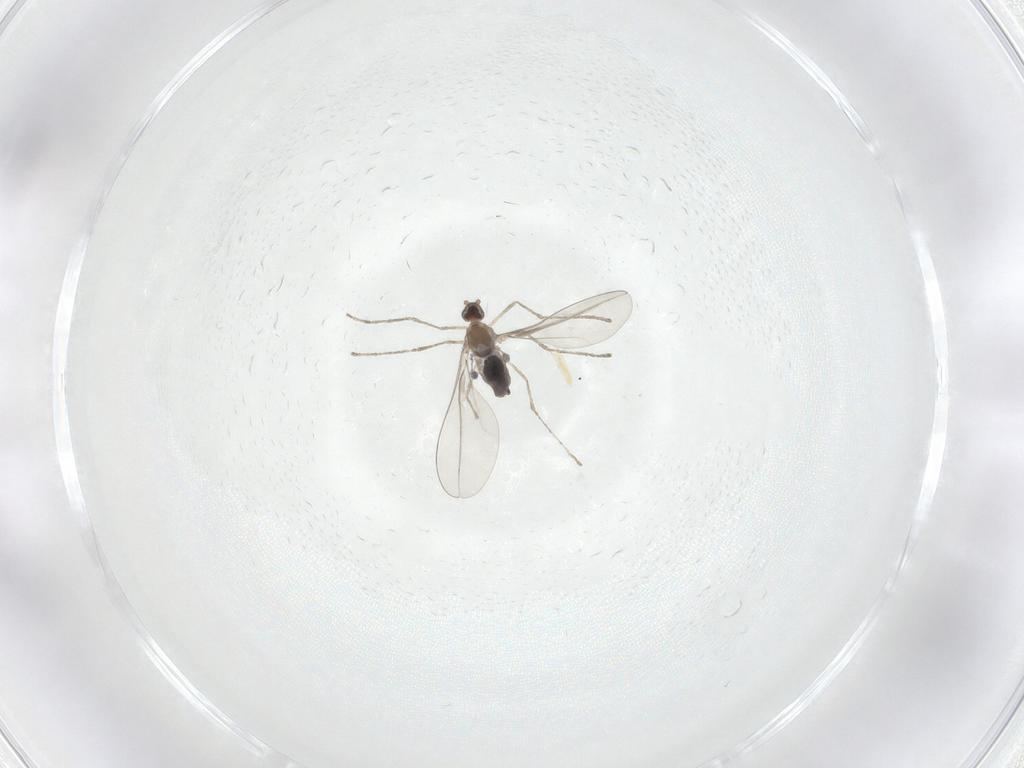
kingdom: Animalia
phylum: Arthropoda
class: Insecta
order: Diptera
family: Cecidomyiidae
